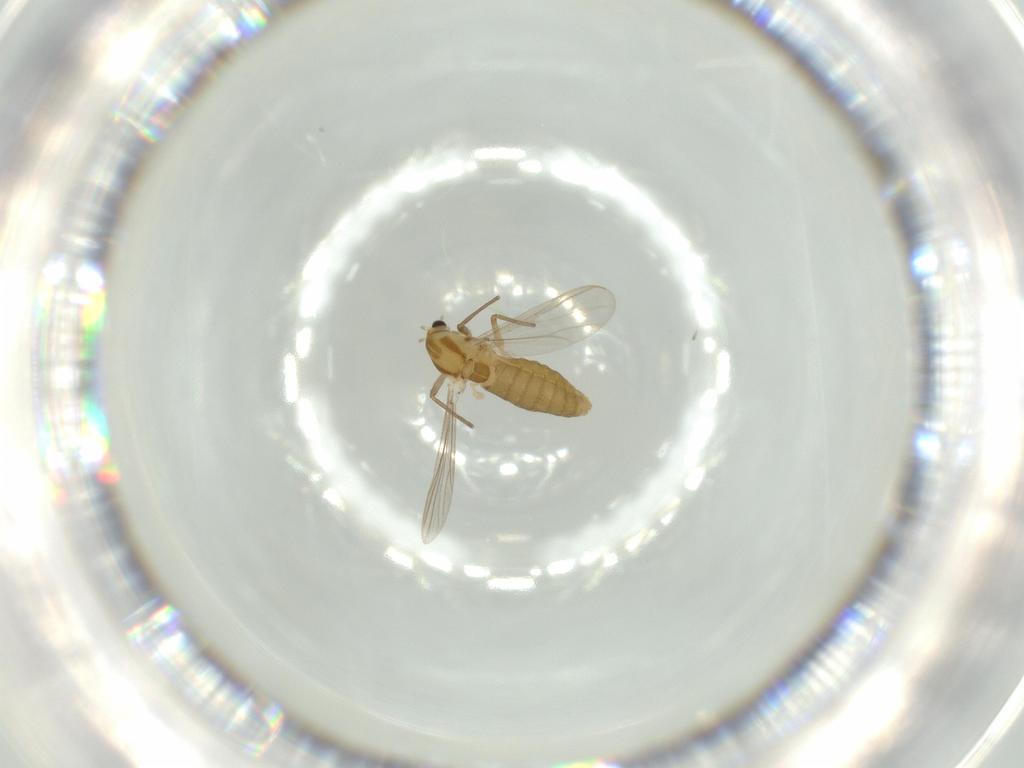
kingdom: Animalia
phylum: Arthropoda
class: Insecta
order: Diptera
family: Chironomidae
